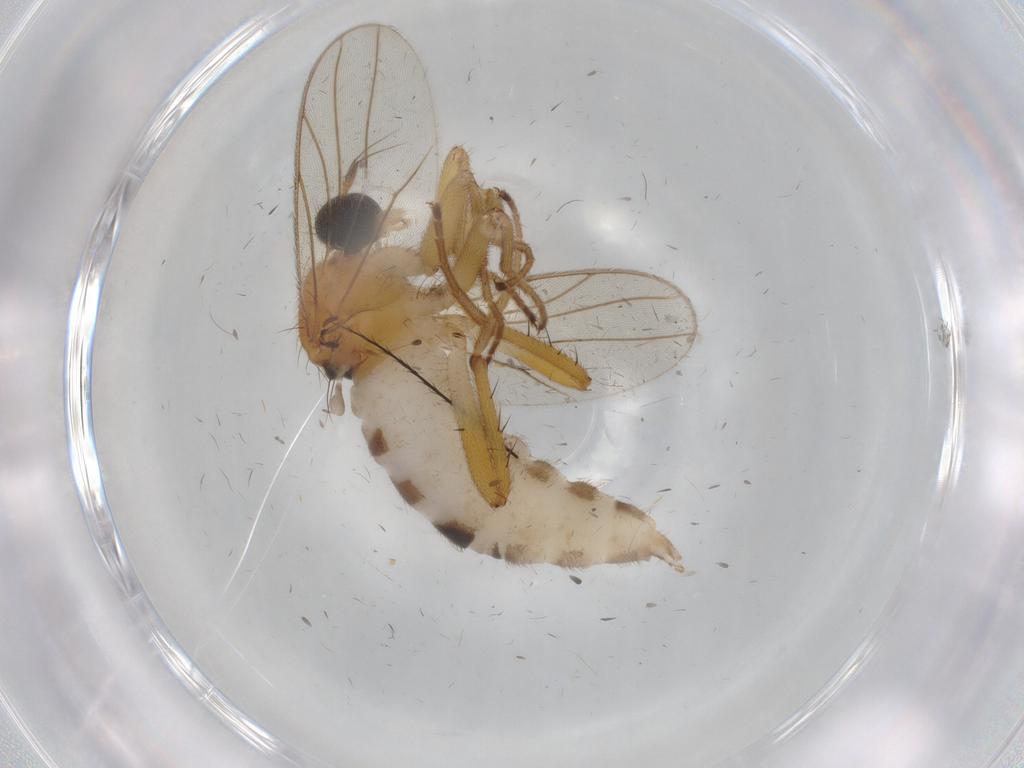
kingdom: Animalia
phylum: Arthropoda
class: Insecta
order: Diptera
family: Hybotidae
